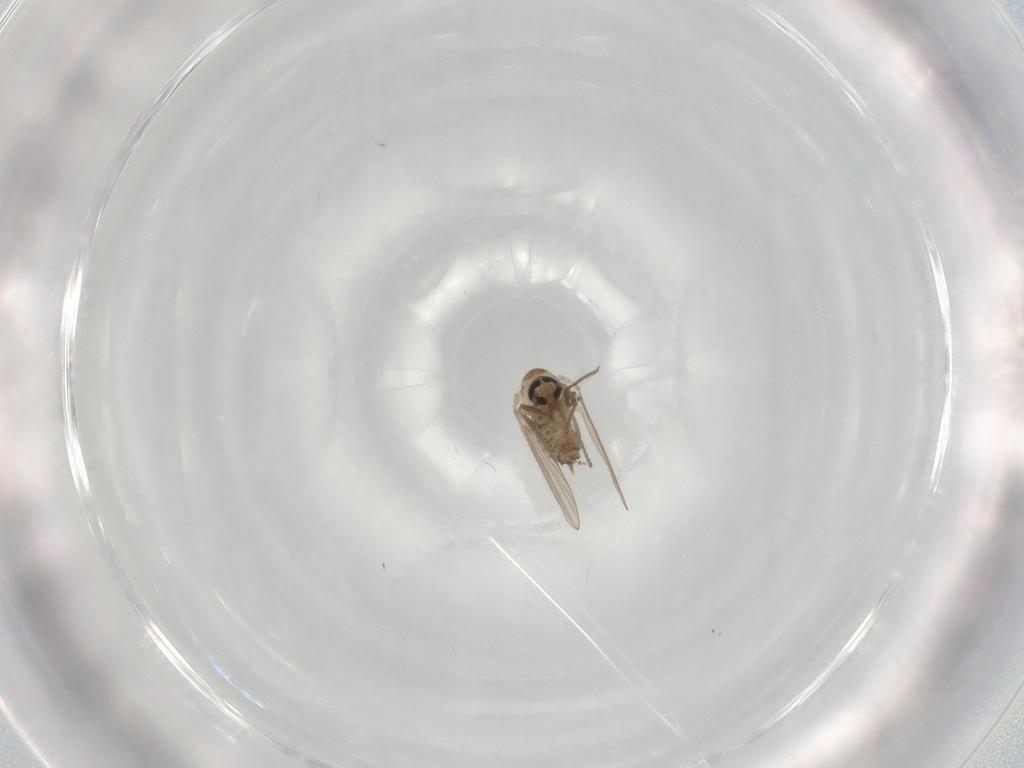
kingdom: Animalia
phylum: Arthropoda
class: Insecta
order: Diptera
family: Psychodidae
